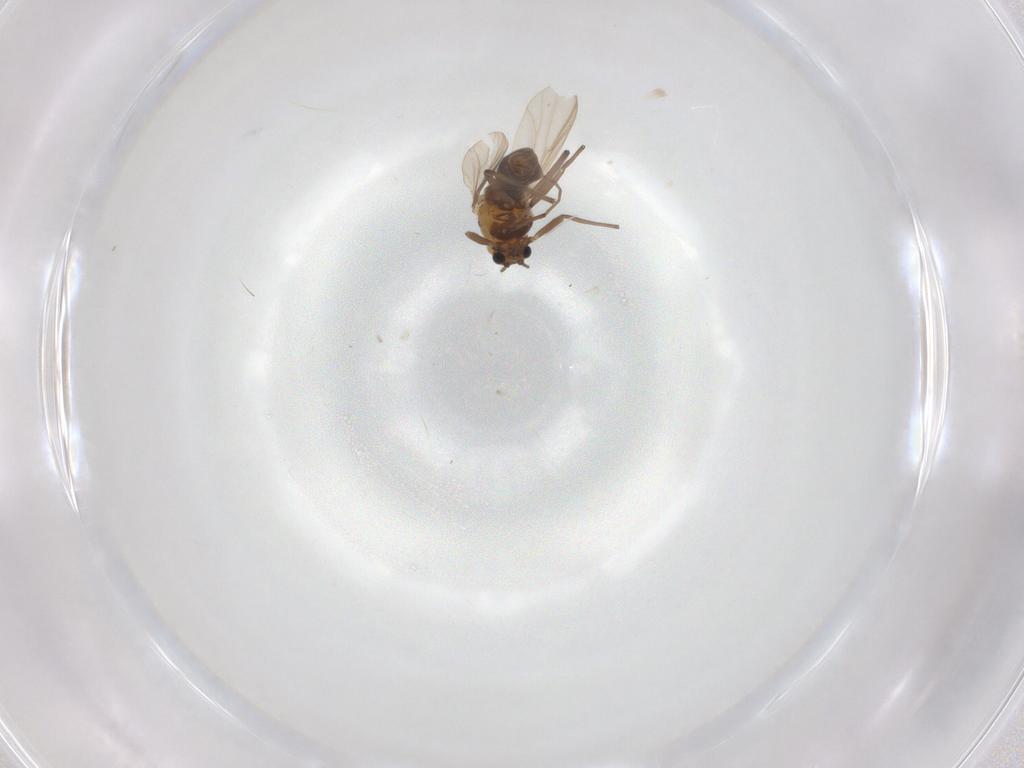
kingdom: Animalia
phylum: Arthropoda
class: Insecta
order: Diptera
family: Chironomidae
